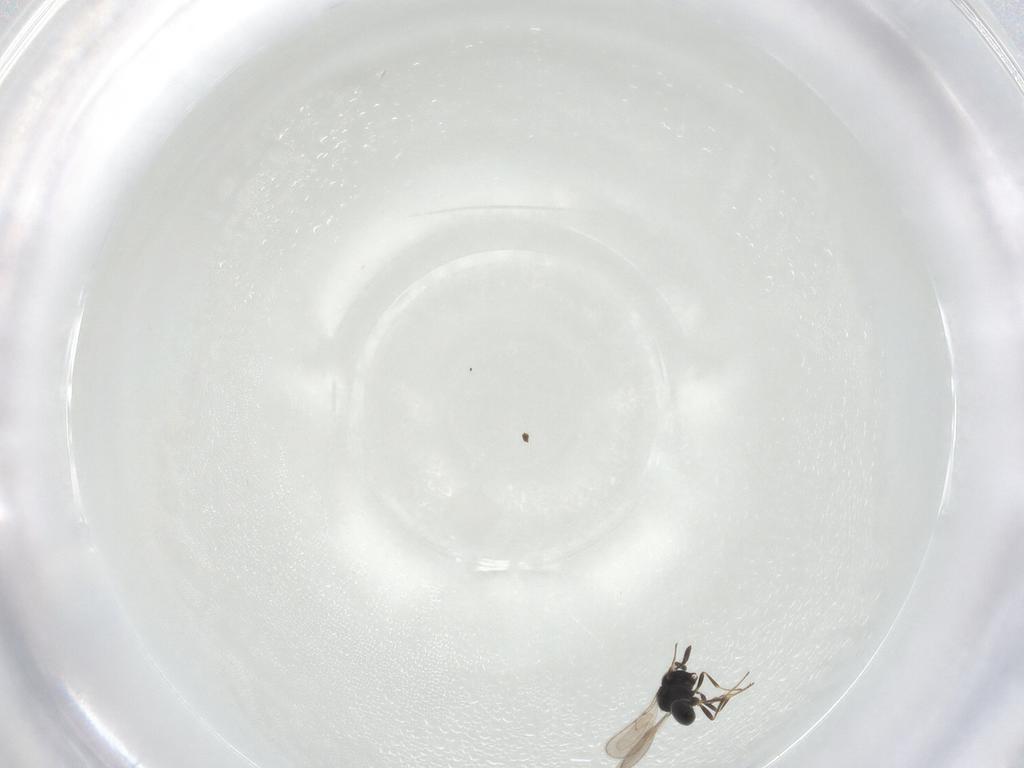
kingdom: Animalia
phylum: Arthropoda
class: Insecta
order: Hymenoptera
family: Scelionidae
